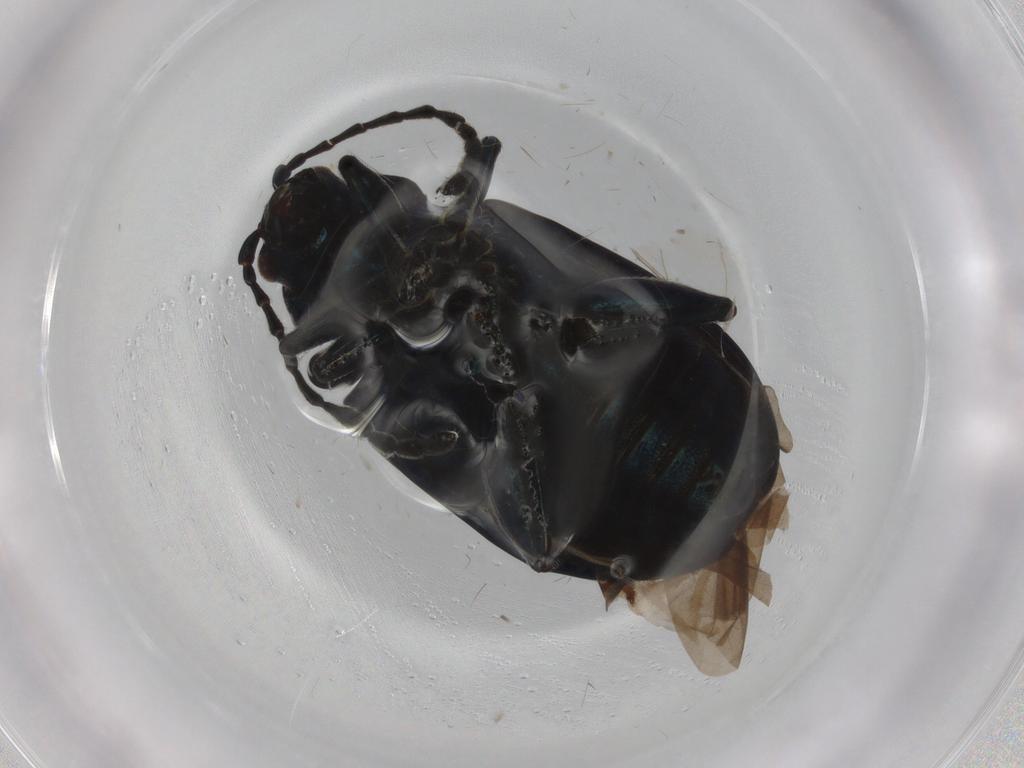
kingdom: Animalia
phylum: Arthropoda
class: Insecta
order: Coleoptera
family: Chrysomelidae
